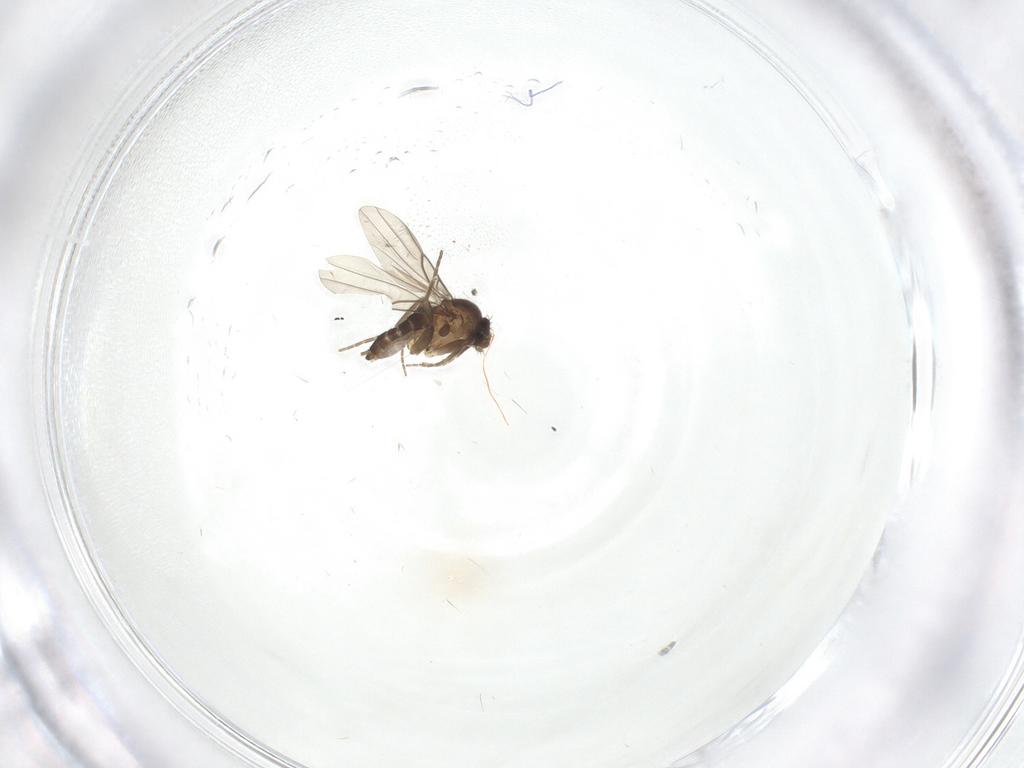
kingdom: Animalia
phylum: Arthropoda
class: Insecta
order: Diptera
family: Phoridae
